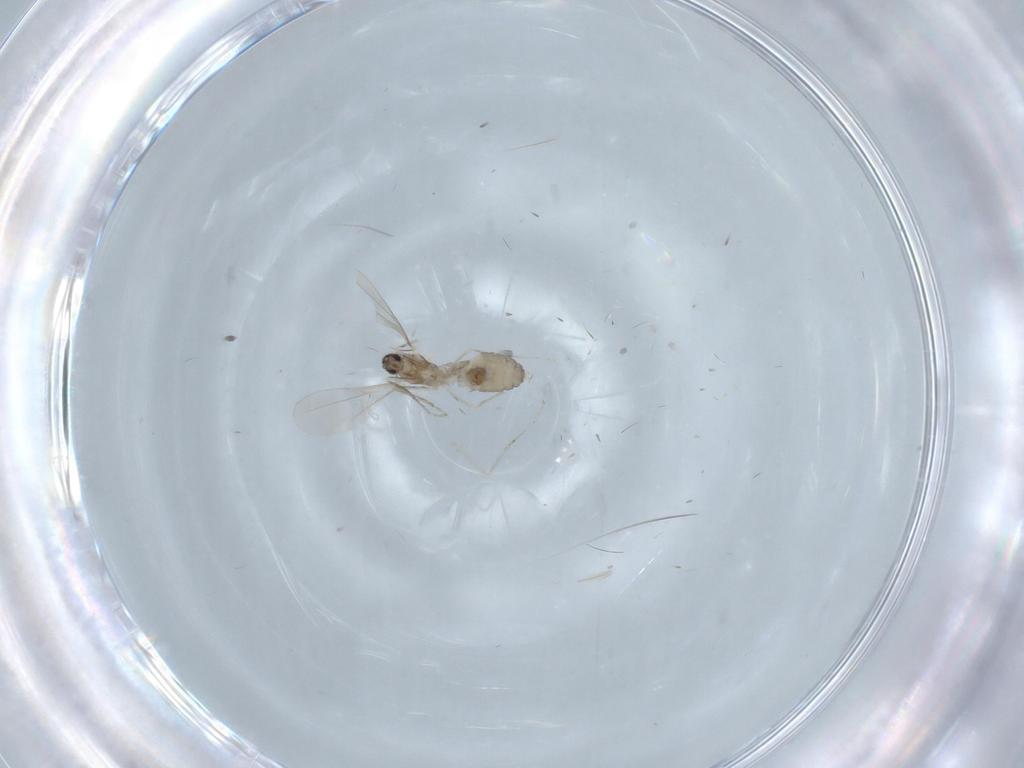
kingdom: Animalia
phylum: Arthropoda
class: Insecta
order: Diptera
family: Cecidomyiidae
